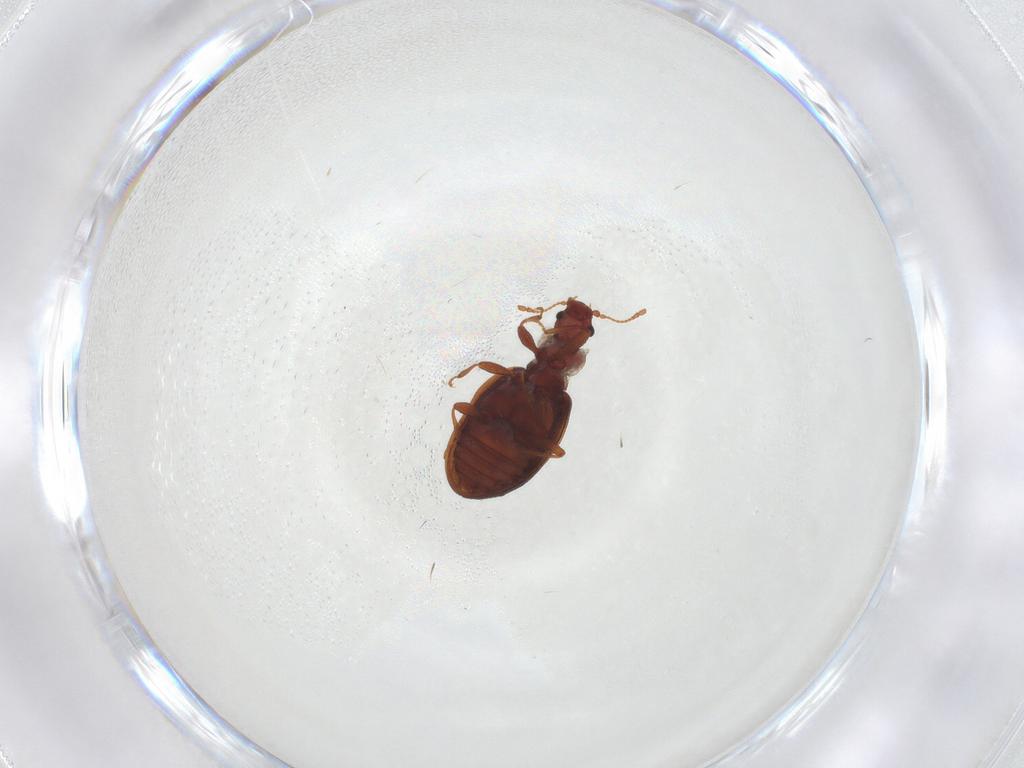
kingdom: Animalia
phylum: Arthropoda
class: Insecta
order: Coleoptera
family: Latridiidae
